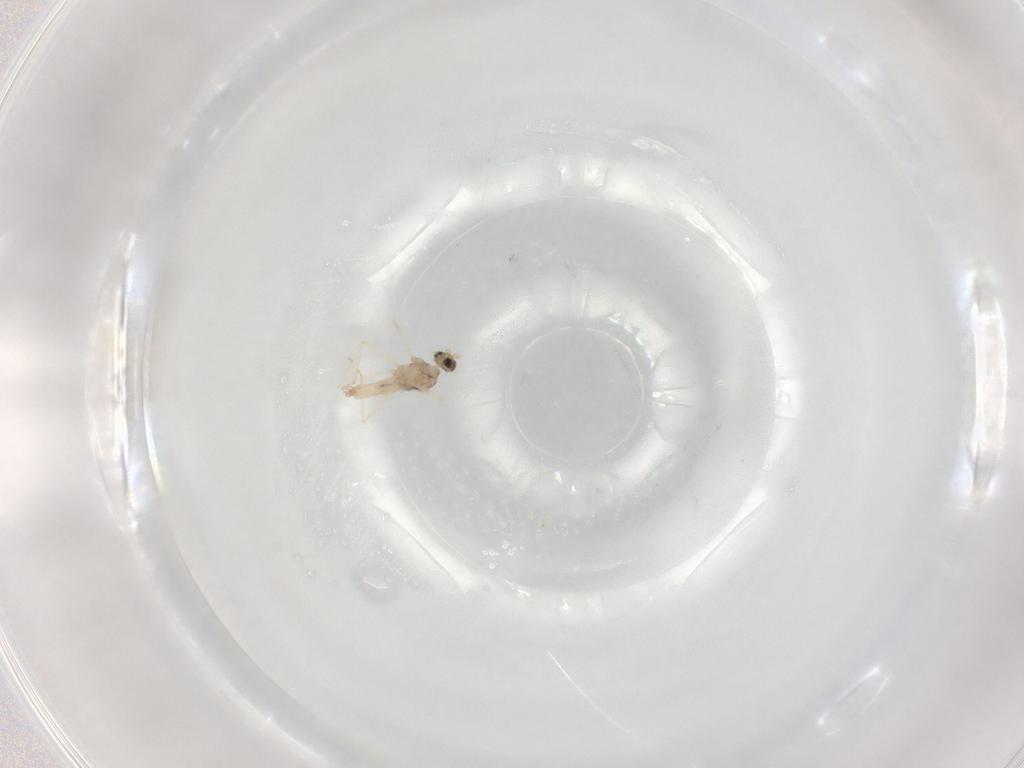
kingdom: Animalia
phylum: Arthropoda
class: Insecta
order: Diptera
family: Cecidomyiidae
